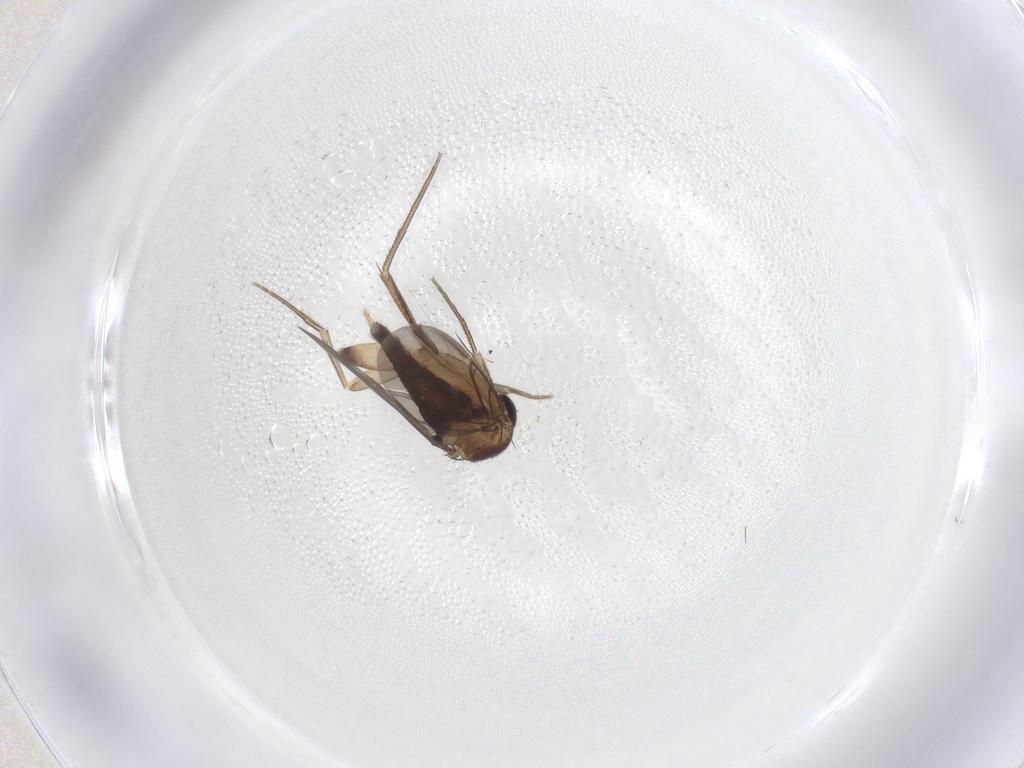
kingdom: Animalia
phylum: Arthropoda
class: Insecta
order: Diptera
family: Phoridae
